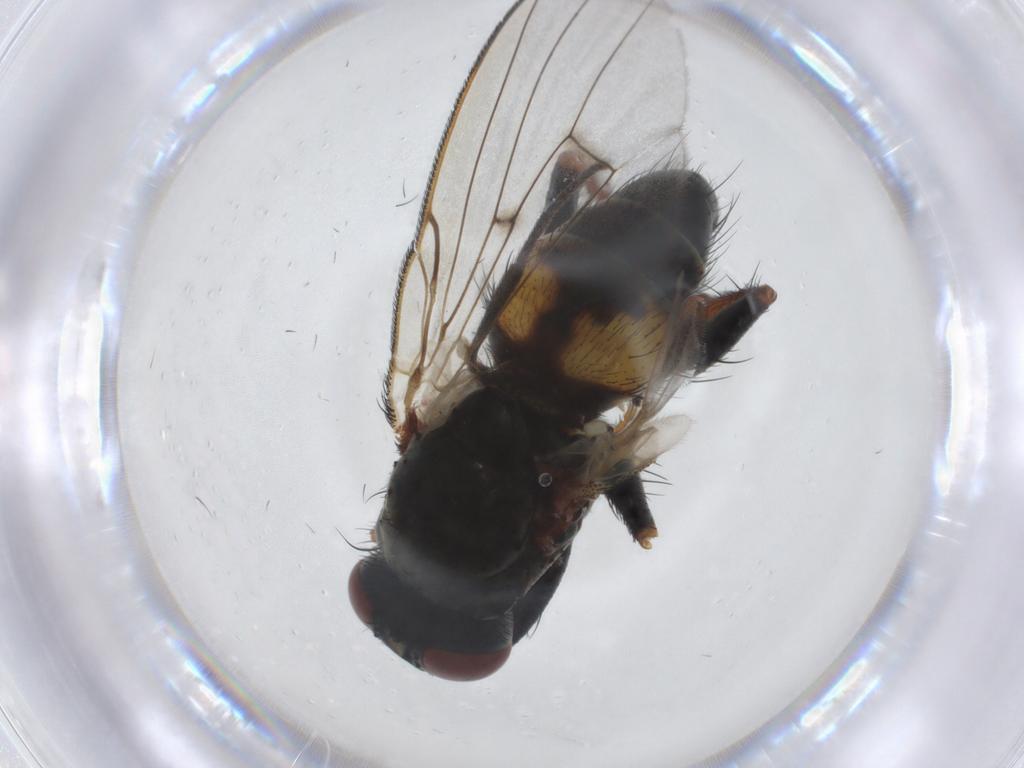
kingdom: Animalia
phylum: Arthropoda
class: Insecta
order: Diptera
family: Muscidae
